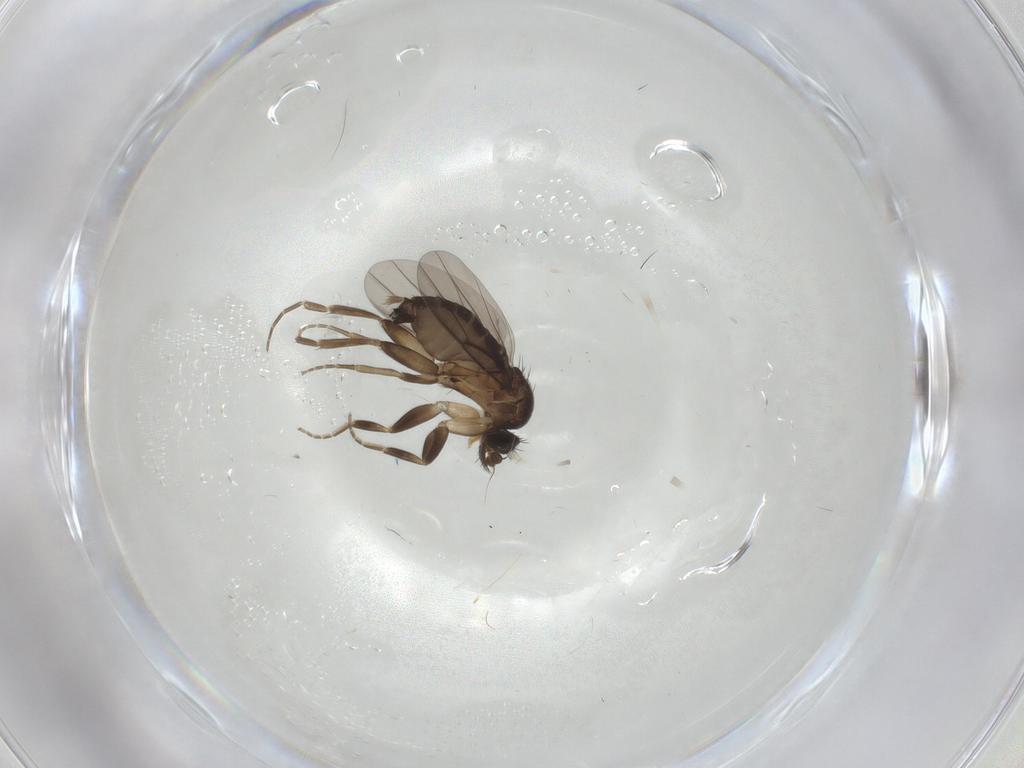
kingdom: Animalia
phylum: Arthropoda
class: Insecta
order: Diptera
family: Phoridae
